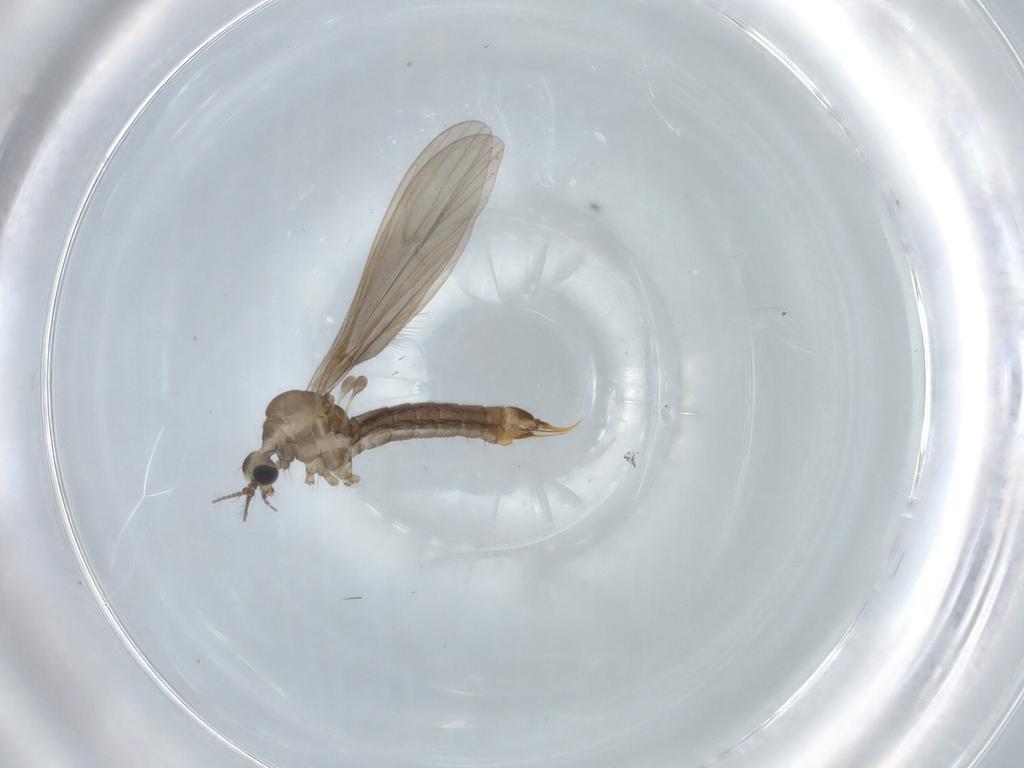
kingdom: Animalia
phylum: Arthropoda
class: Insecta
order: Diptera
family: Limoniidae
